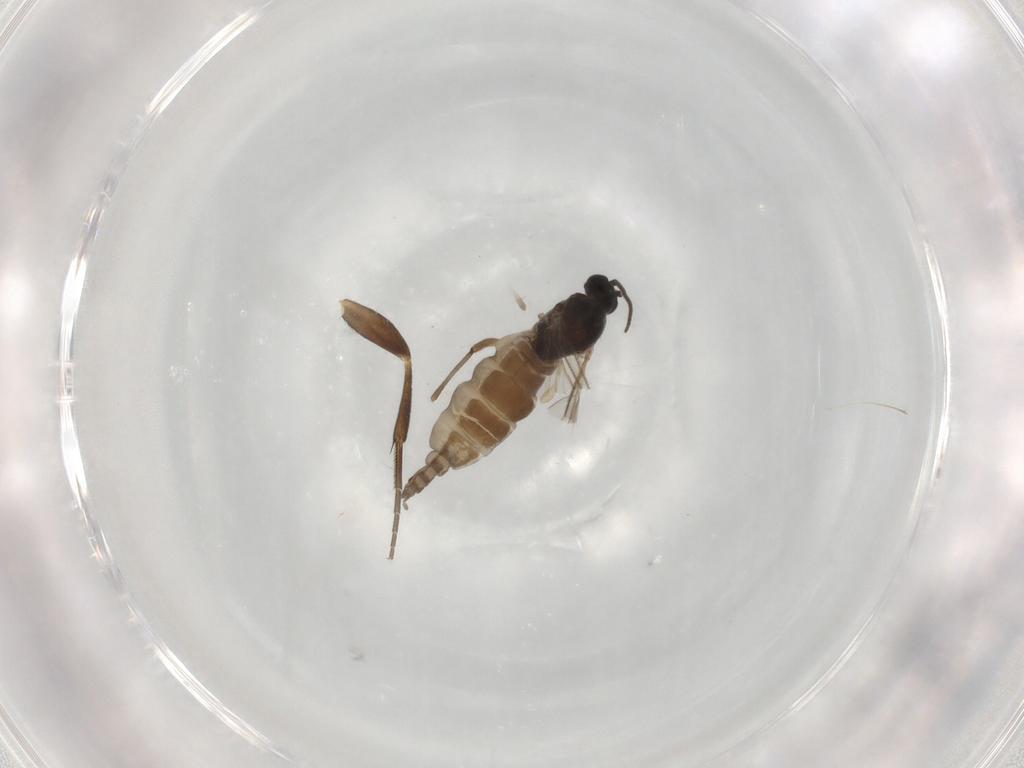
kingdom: Animalia
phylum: Arthropoda
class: Insecta
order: Diptera
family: Sciaridae
